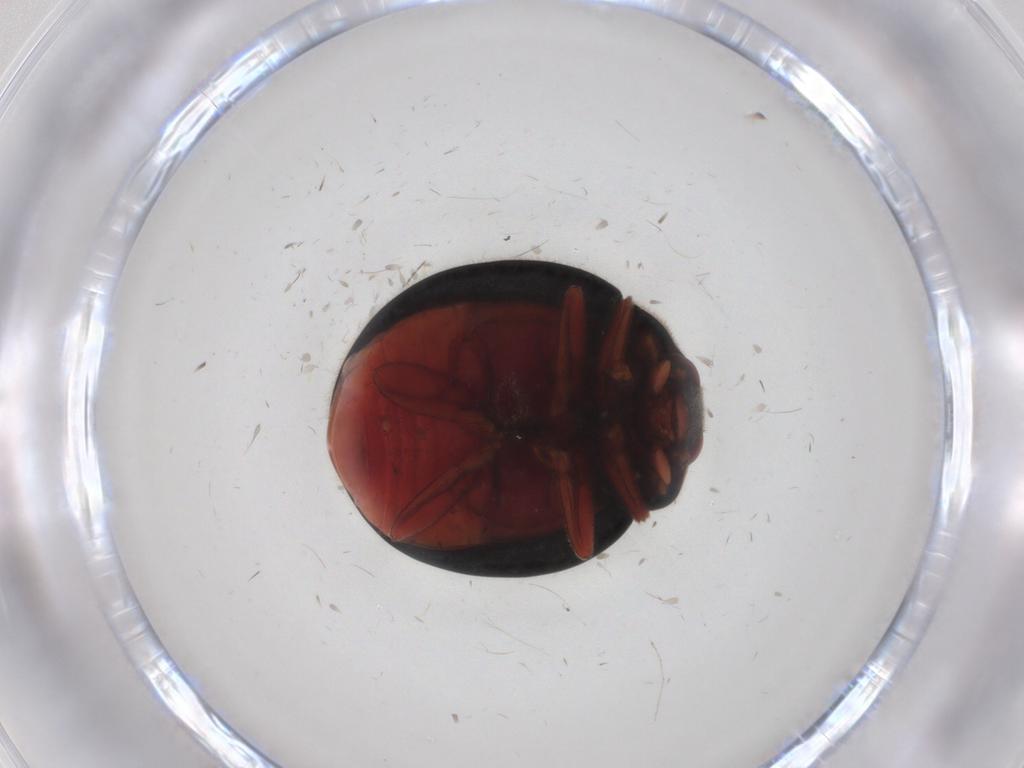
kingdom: Animalia
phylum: Arthropoda
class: Insecta
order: Coleoptera
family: Coccinellidae
